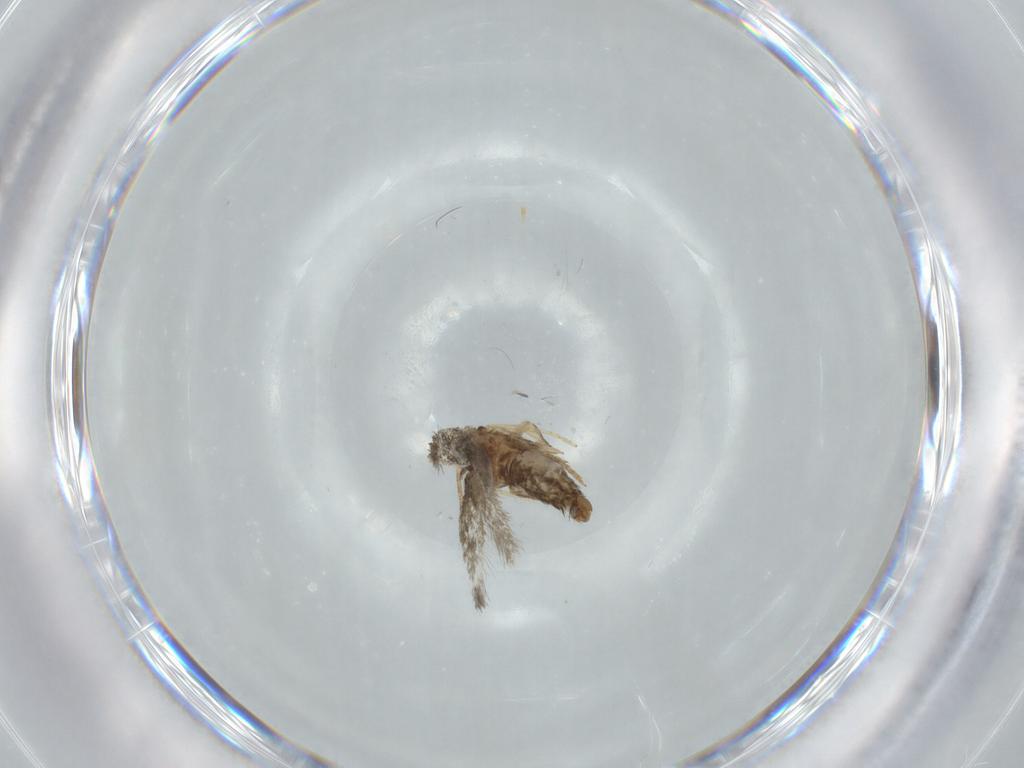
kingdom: Animalia
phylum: Arthropoda
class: Insecta
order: Lepidoptera
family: Nepticulidae
